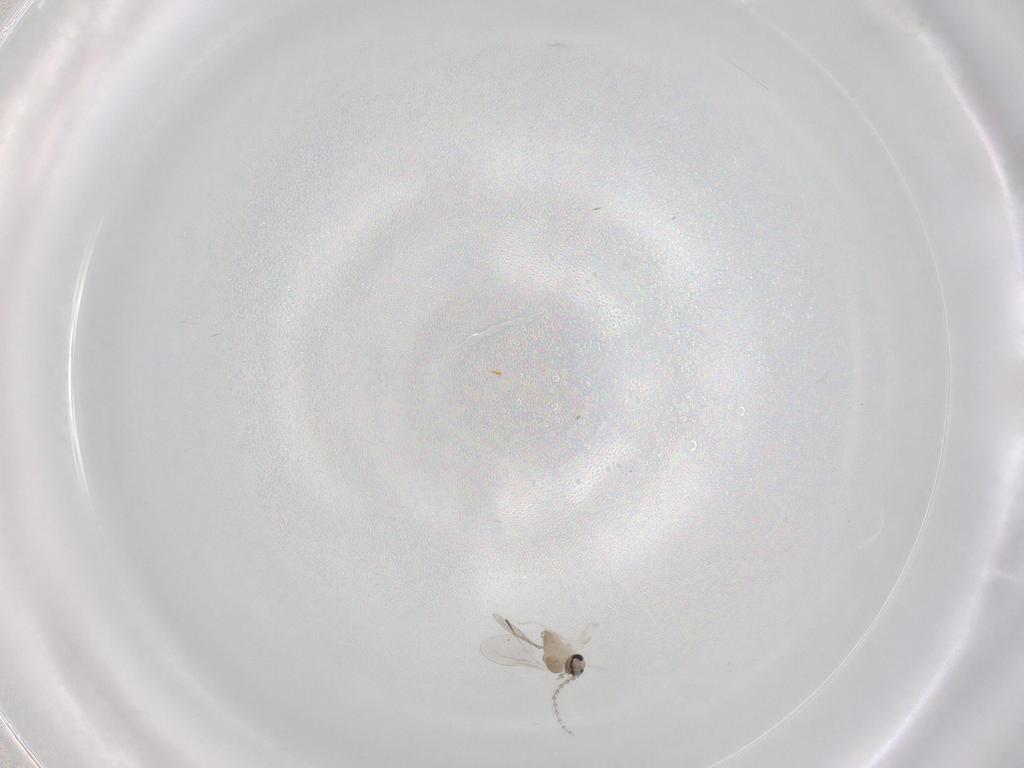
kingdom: Animalia
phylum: Arthropoda
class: Insecta
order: Diptera
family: Cecidomyiidae
